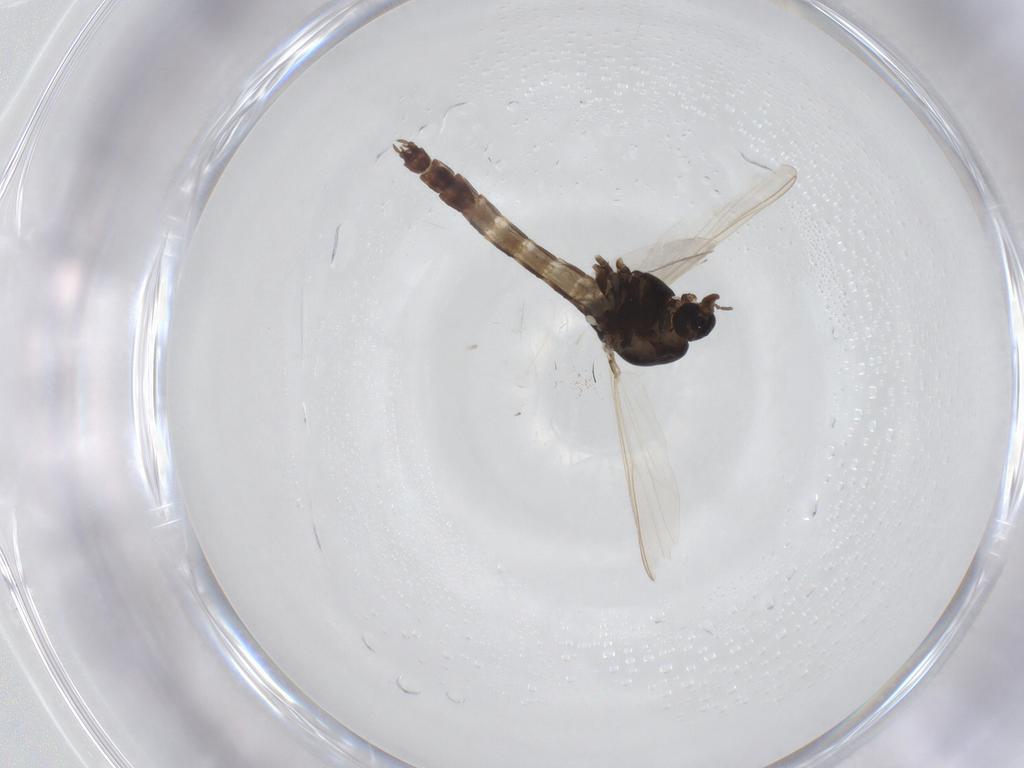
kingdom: Animalia
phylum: Arthropoda
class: Insecta
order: Diptera
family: Chironomidae
